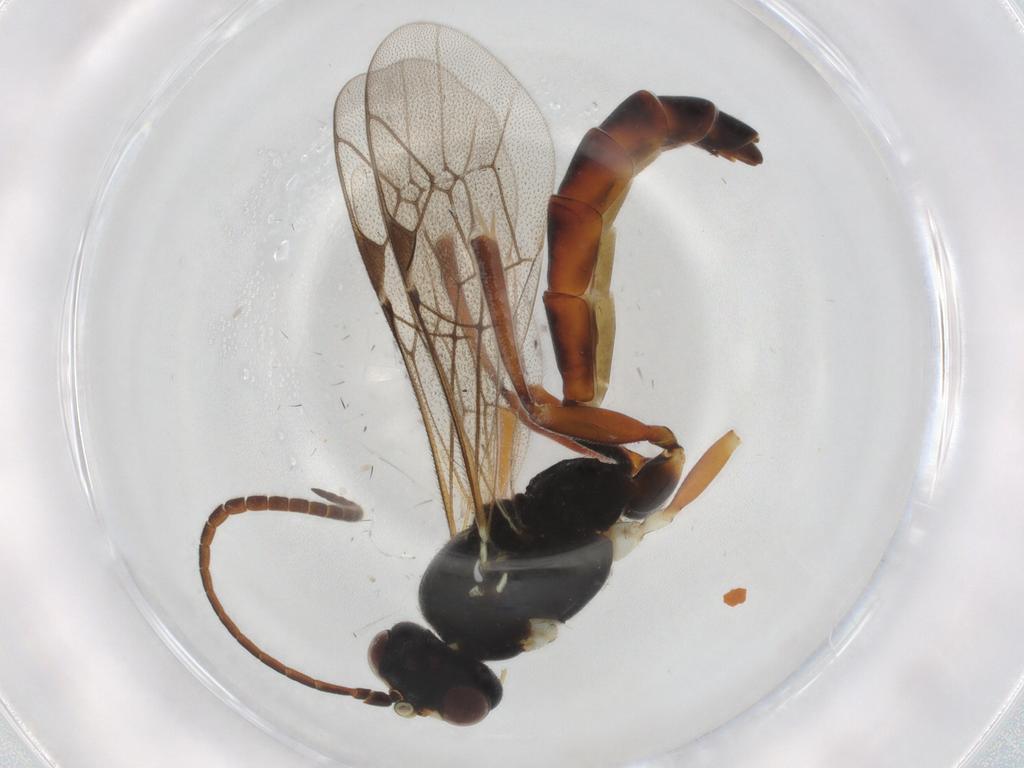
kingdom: Animalia
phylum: Arthropoda
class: Insecta
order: Hymenoptera
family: Ichneumonidae
